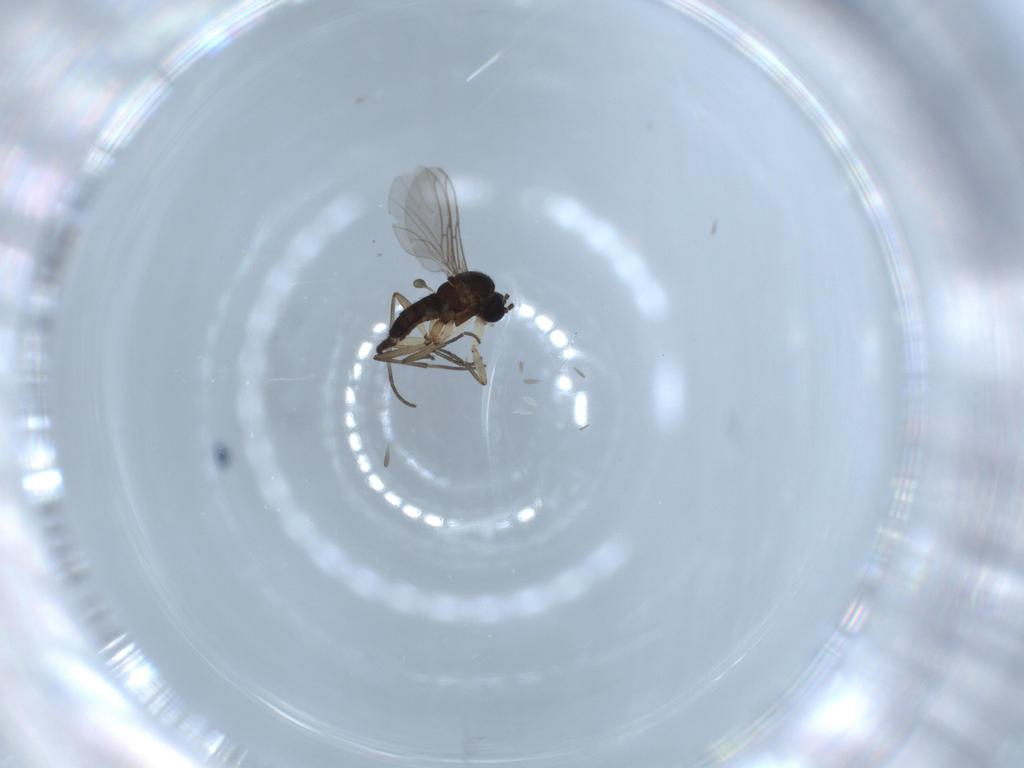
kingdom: Animalia
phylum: Arthropoda
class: Insecta
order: Diptera
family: Sciaridae
